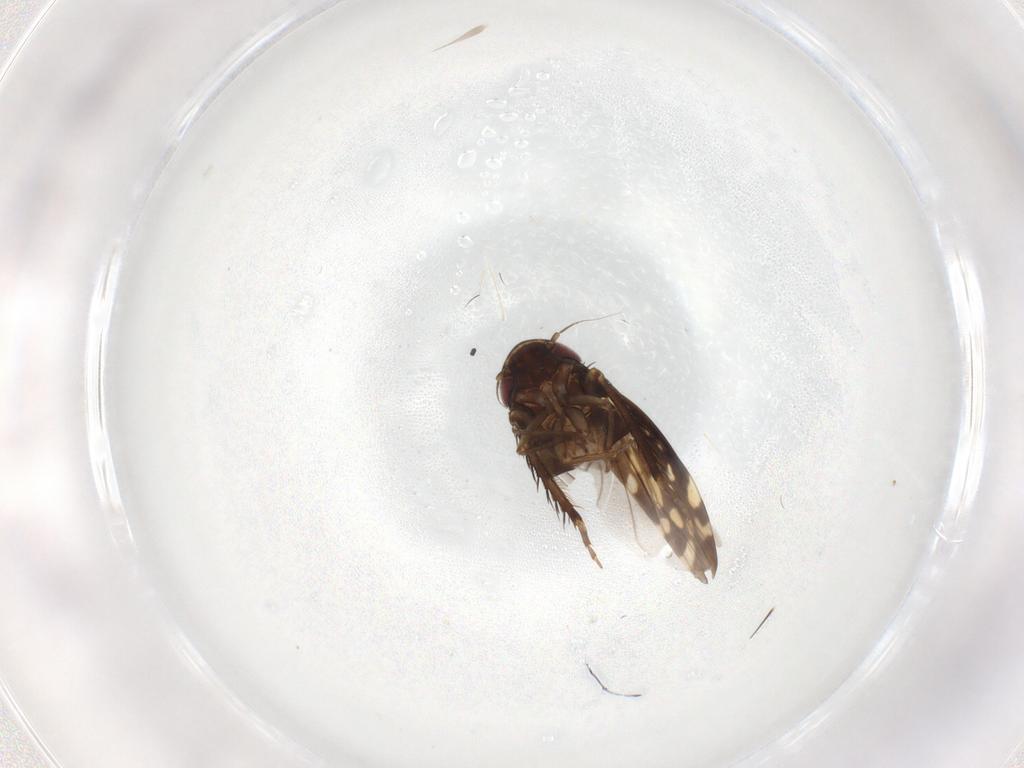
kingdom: Animalia
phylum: Arthropoda
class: Insecta
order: Hemiptera
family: Cicadellidae
